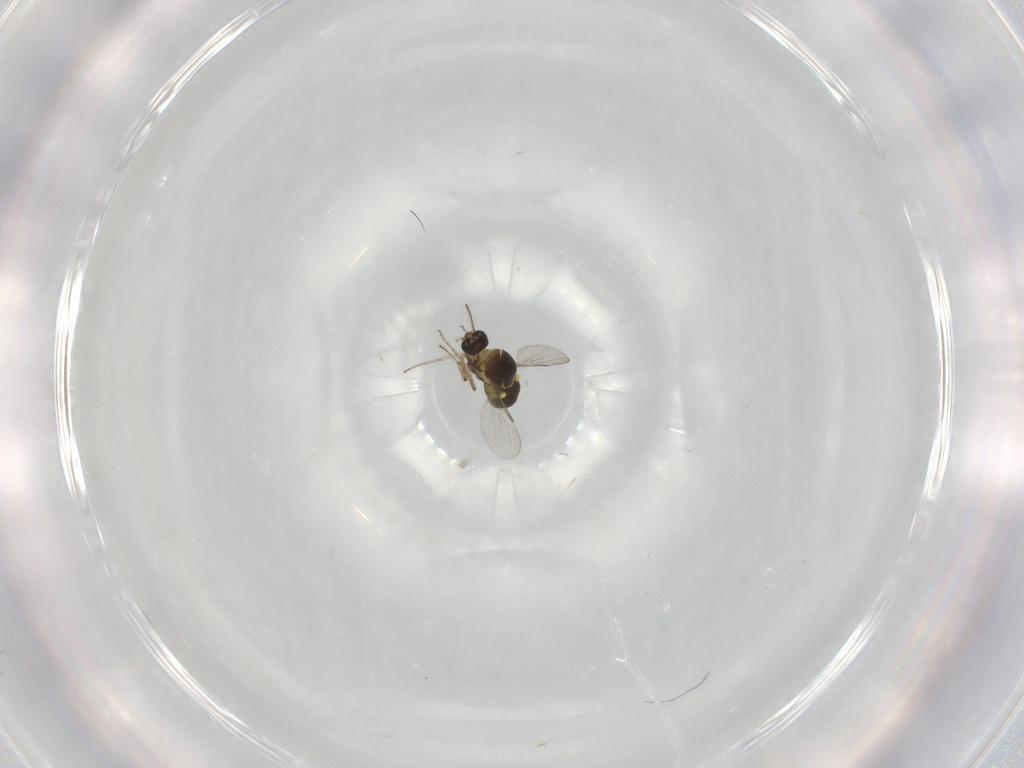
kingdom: Animalia
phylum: Arthropoda
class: Insecta
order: Diptera
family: Ceratopogonidae
